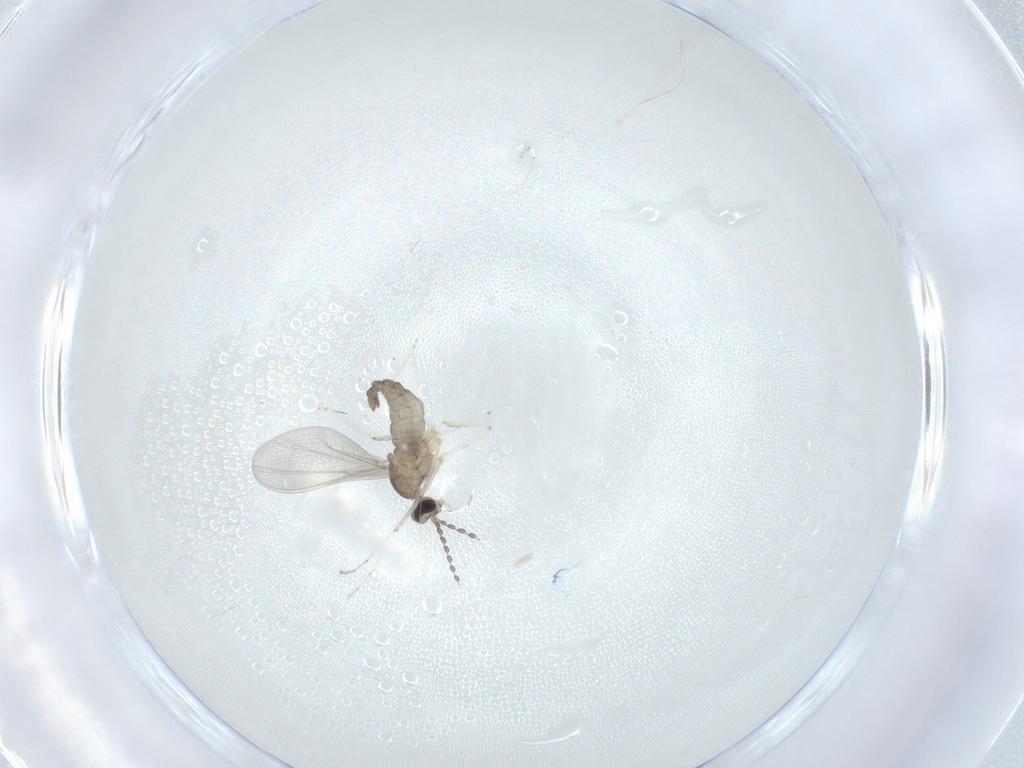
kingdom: Animalia
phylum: Arthropoda
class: Insecta
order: Diptera
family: Cecidomyiidae
